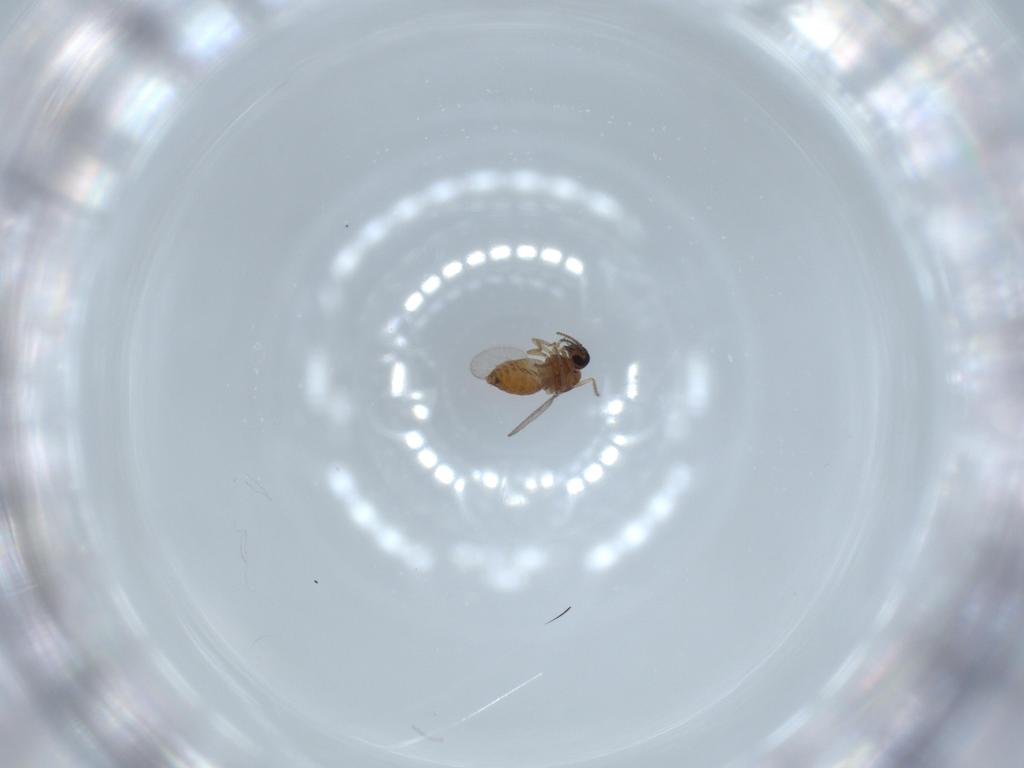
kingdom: Animalia
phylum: Arthropoda
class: Insecta
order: Diptera
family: Ceratopogonidae
